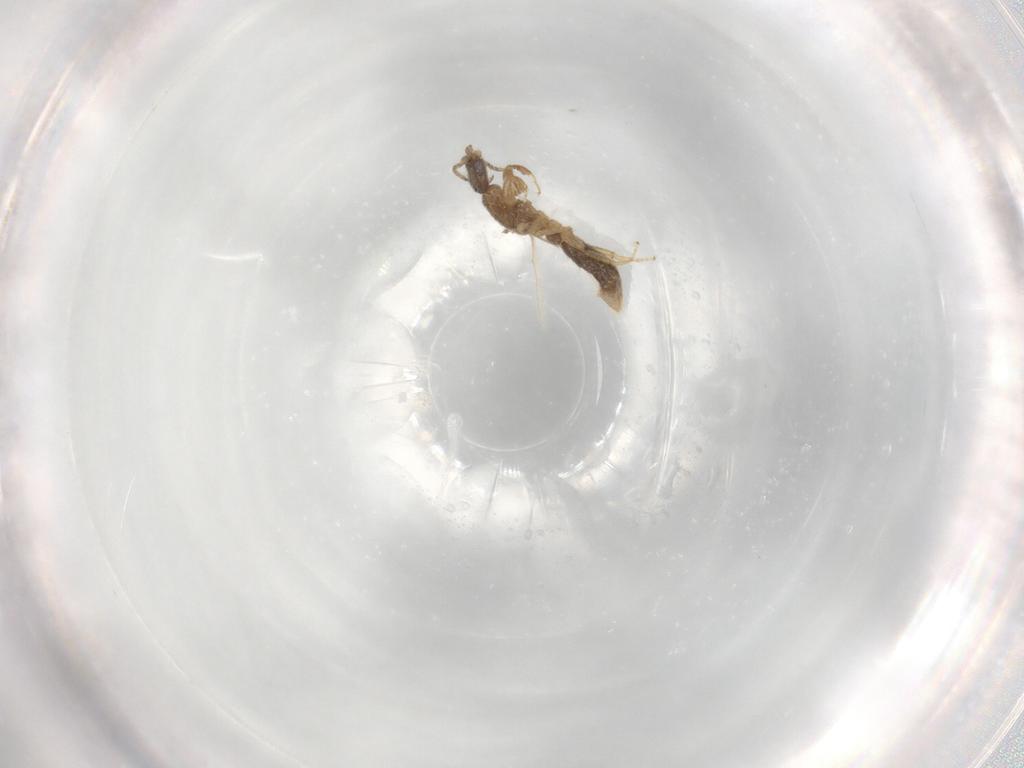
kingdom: Animalia
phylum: Arthropoda
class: Insecta
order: Hymenoptera
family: Formicidae
